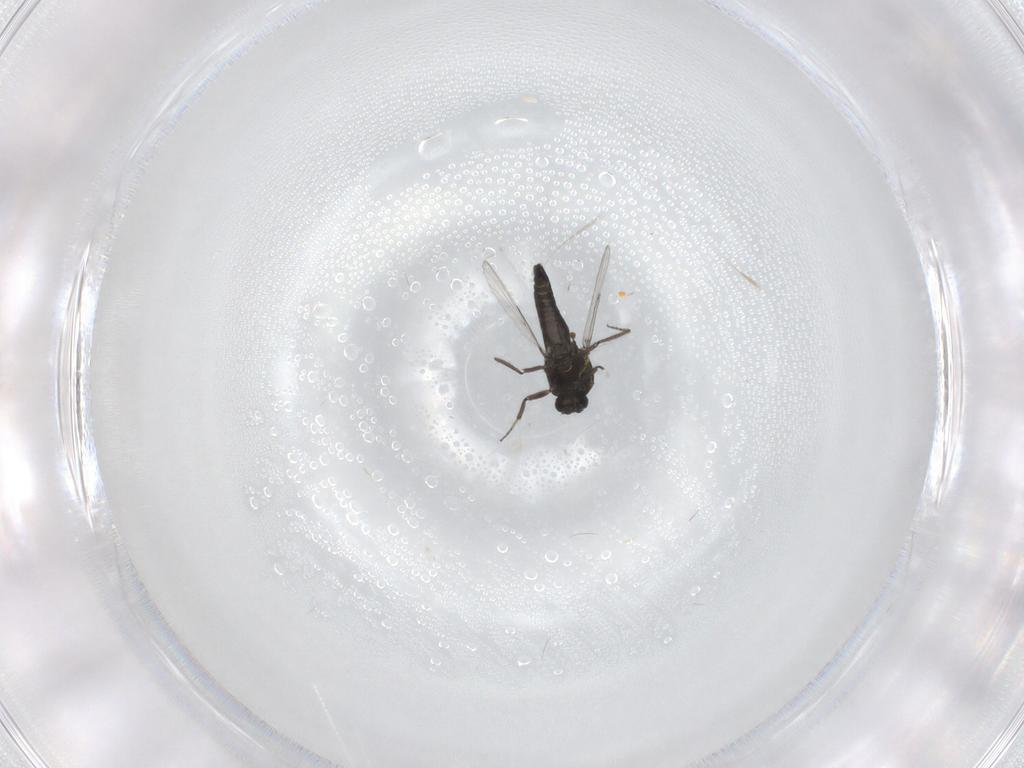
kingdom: Animalia
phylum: Arthropoda
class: Insecta
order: Diptera
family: Ceratopogonidae
